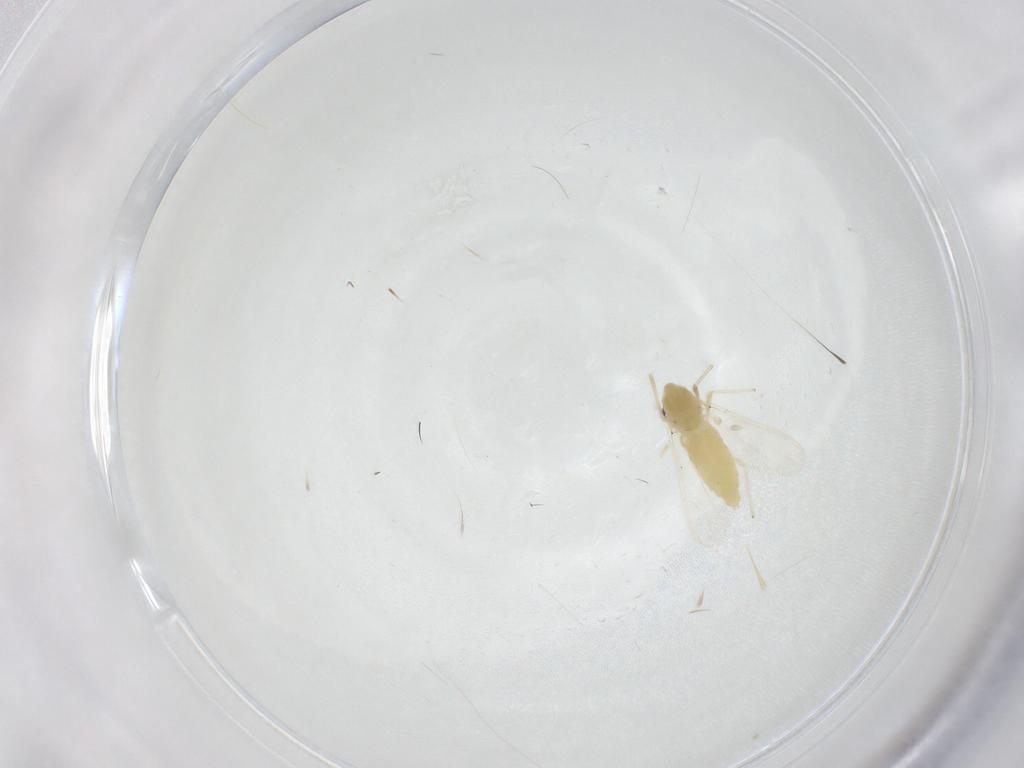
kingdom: Animalia
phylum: Arthropoda
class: Insecta
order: Diptera
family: Chironomidae
